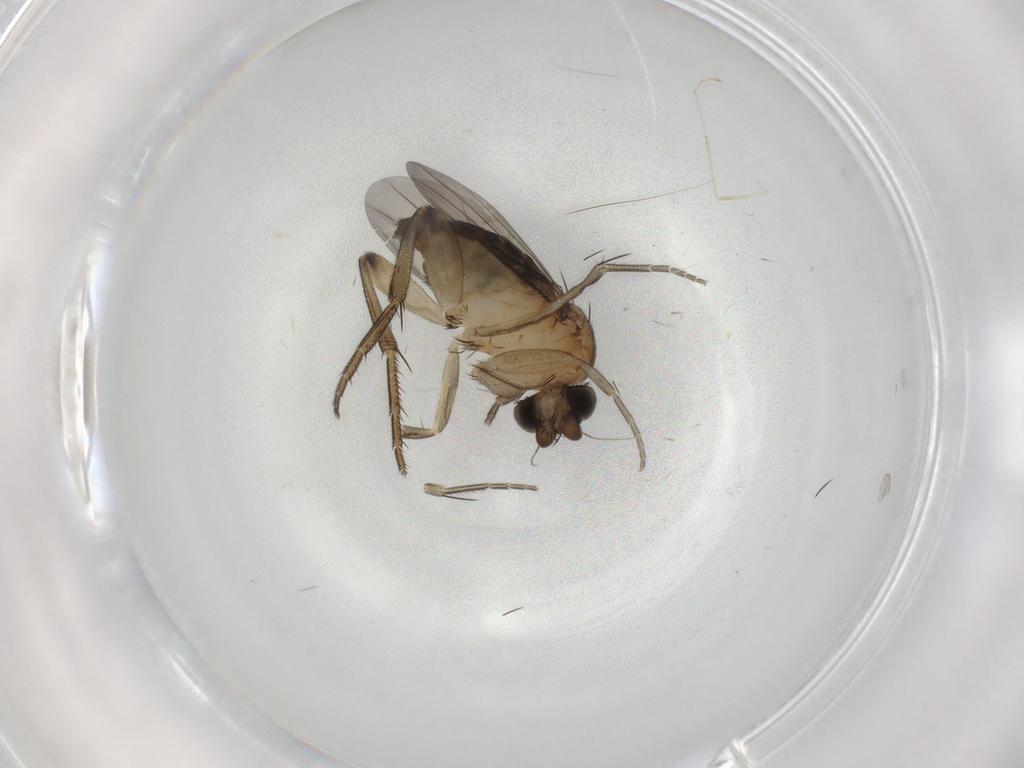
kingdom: Animalia
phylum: Arthropoda
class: Insecta
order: Diptera
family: Phoridae
